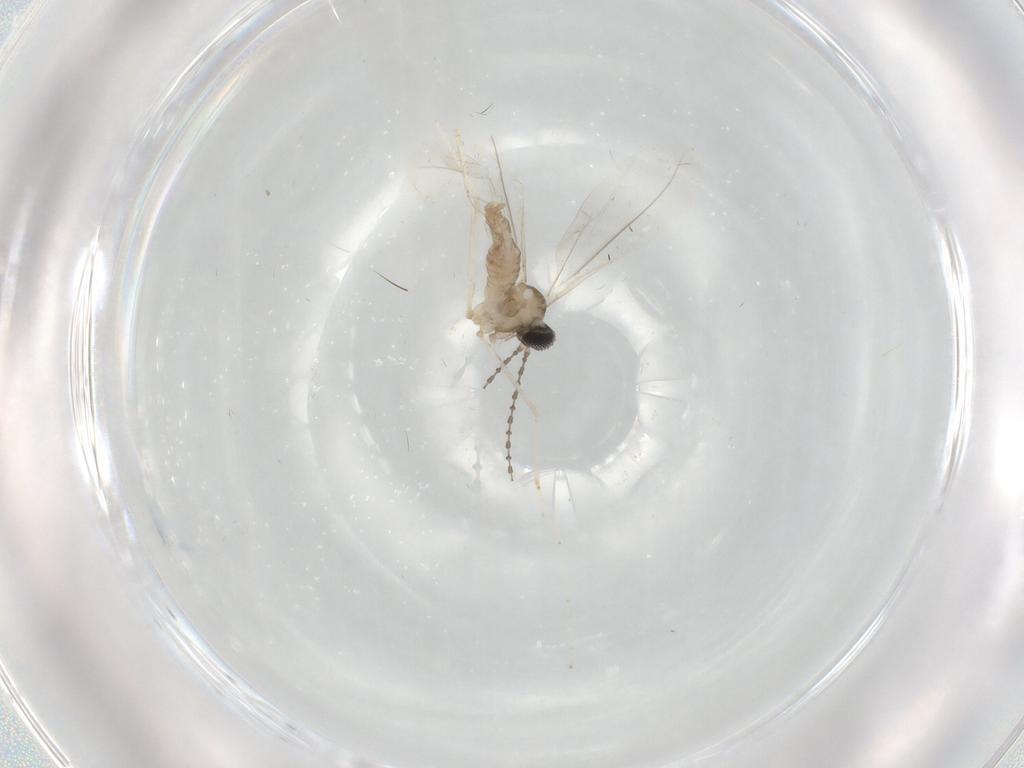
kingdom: Animalia
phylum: Arthropoda
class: Insecta
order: Diptera
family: Cecidomyiidae
